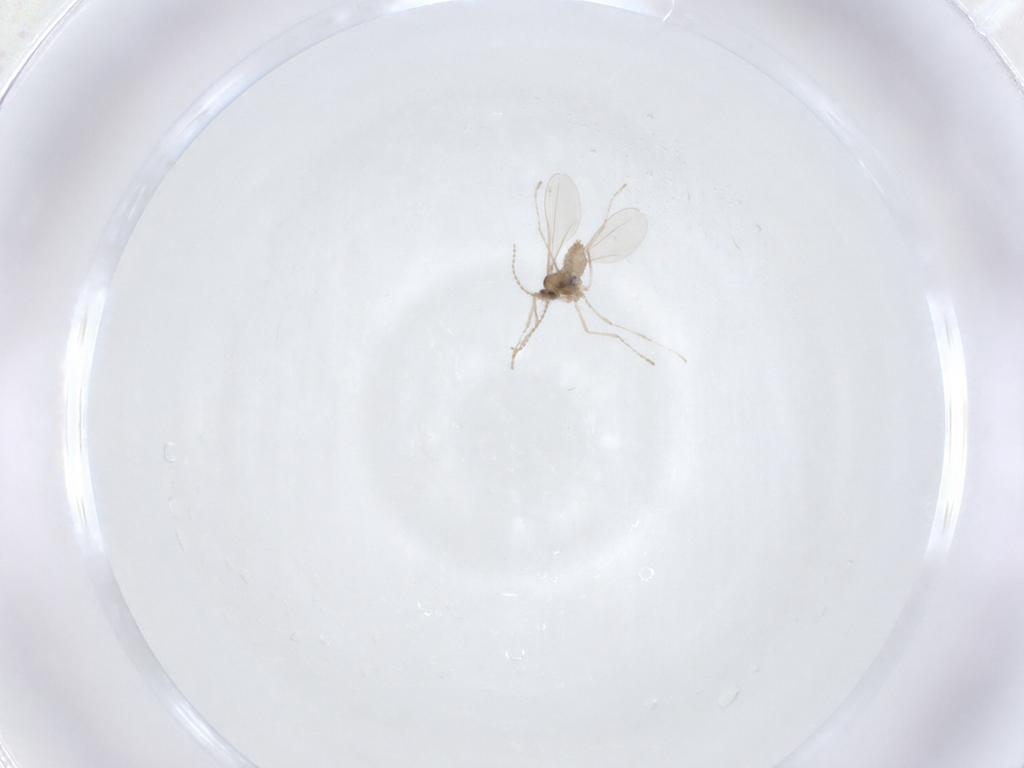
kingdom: Animalia
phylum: Arthropoda
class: Insecta
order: Diptera
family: Cecidomyiidae
